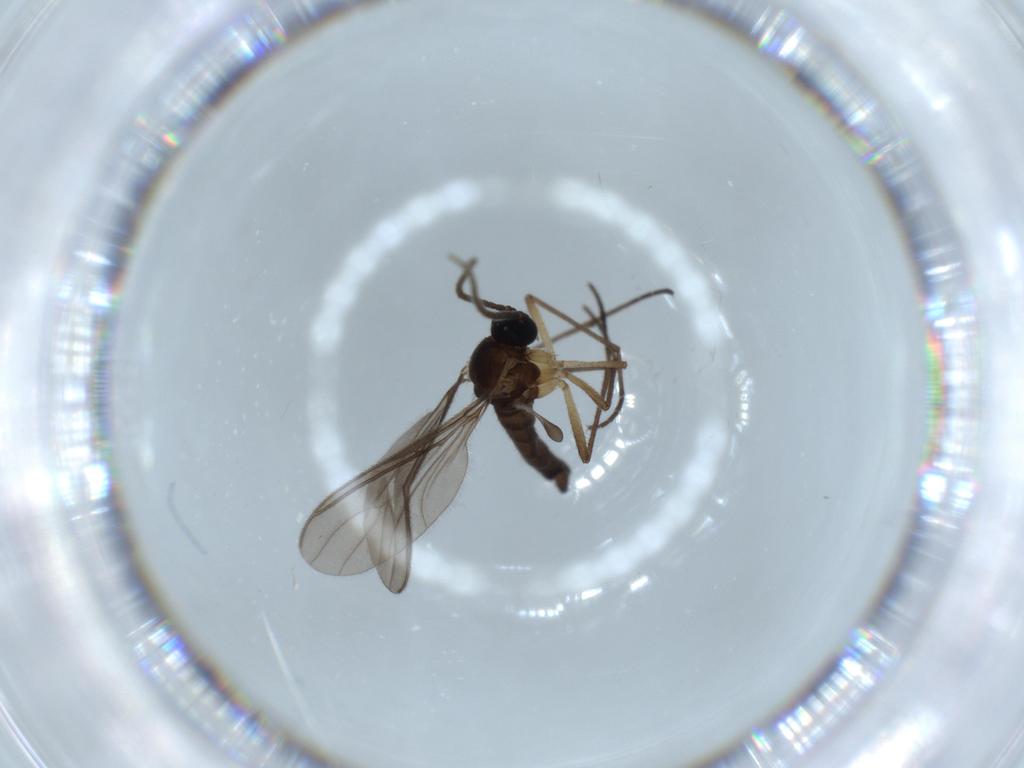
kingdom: Animalia
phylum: Arthropoda
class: Insecta
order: Diptera
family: Sciaridae
